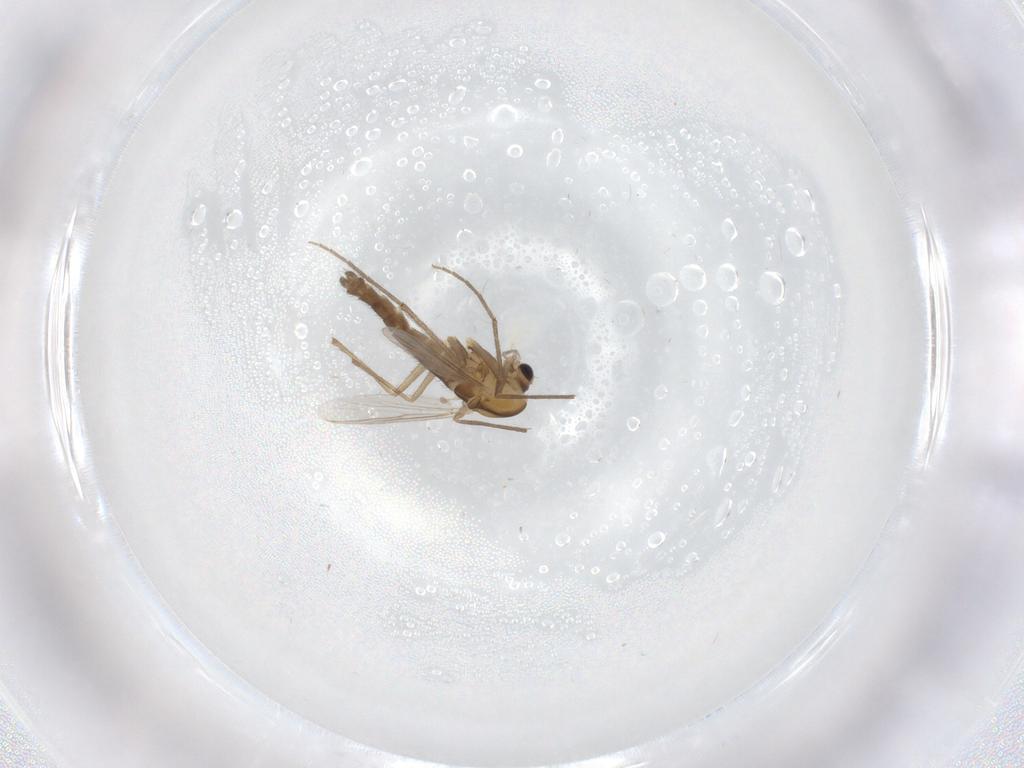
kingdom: Animalia
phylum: Arthropoda
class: Insecta
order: Diptera
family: Chironomidae
